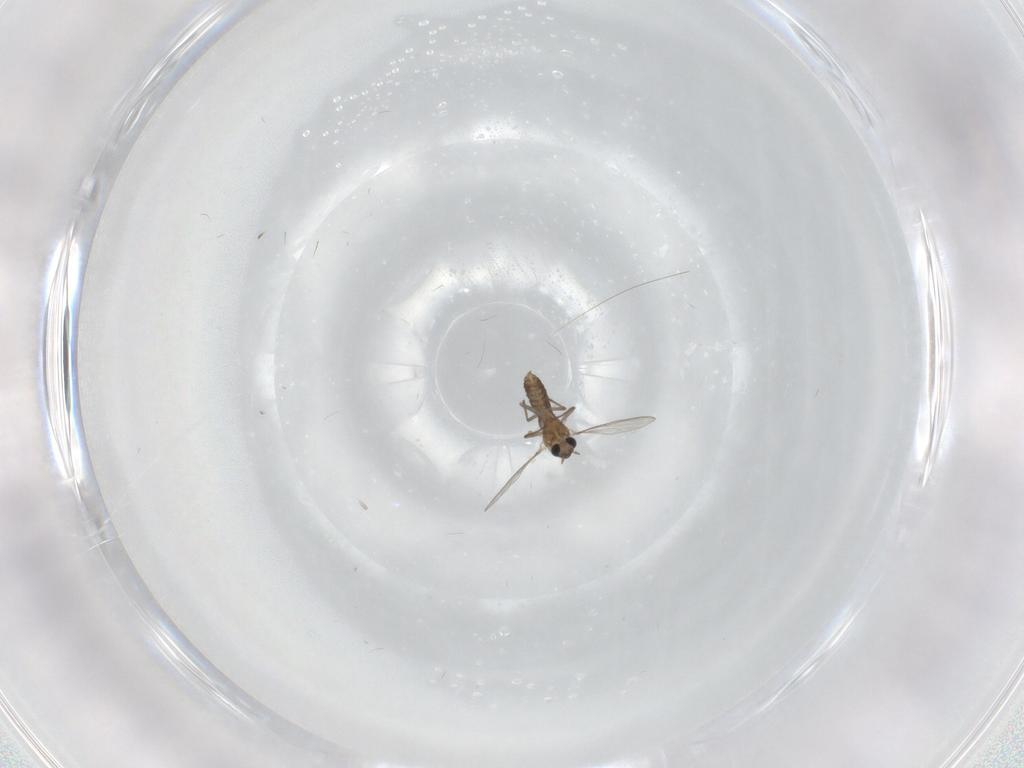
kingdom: Animalia
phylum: Arthropoda
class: Insecta
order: Diptera
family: Chironomidae
